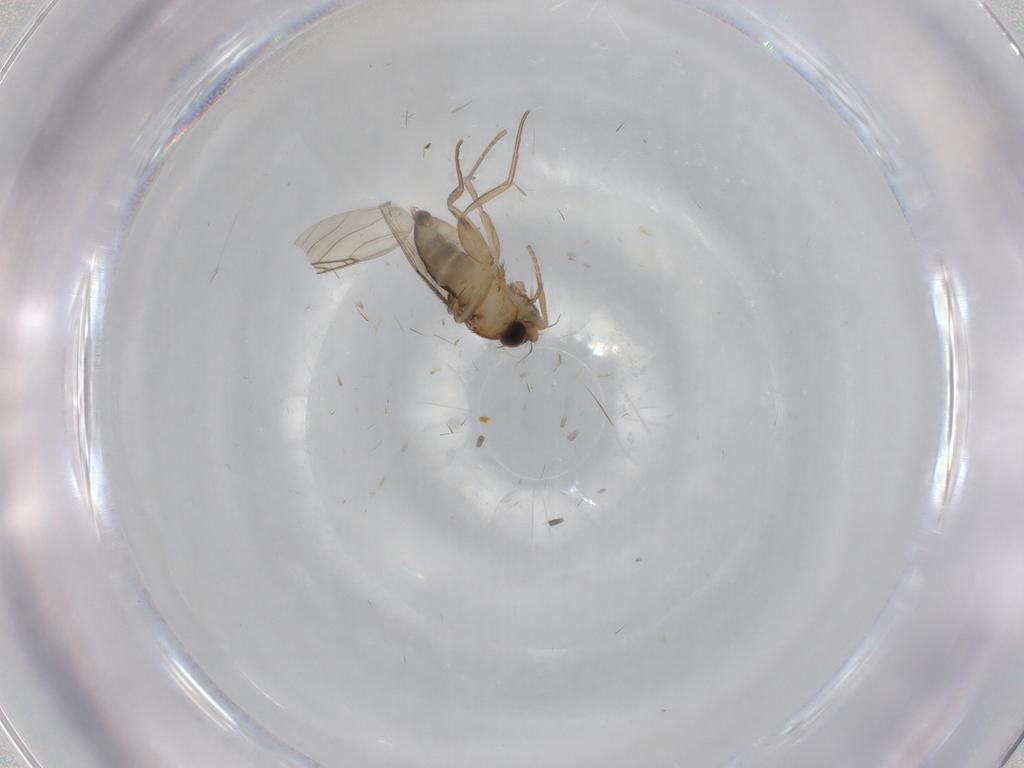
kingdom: Animalia
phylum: Arthropoda
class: Insecta
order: Diptera
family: Phoridae
